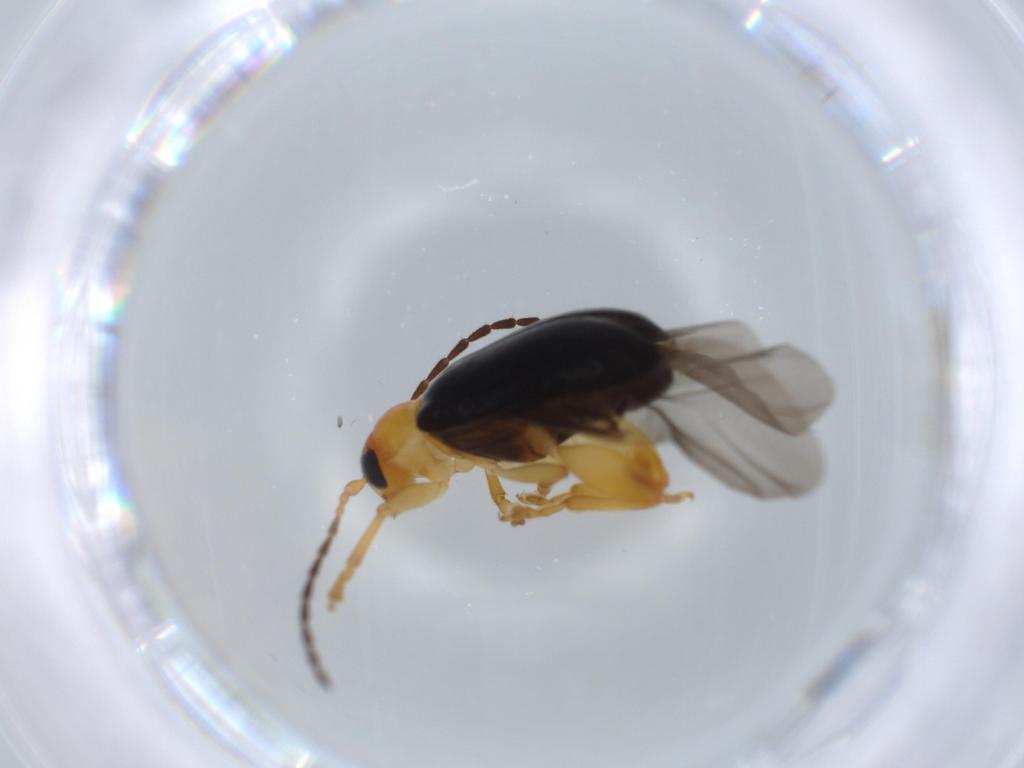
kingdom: Animalia
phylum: Arthropoda
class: Insecta
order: Coleoptera
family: Chrysomelidae
